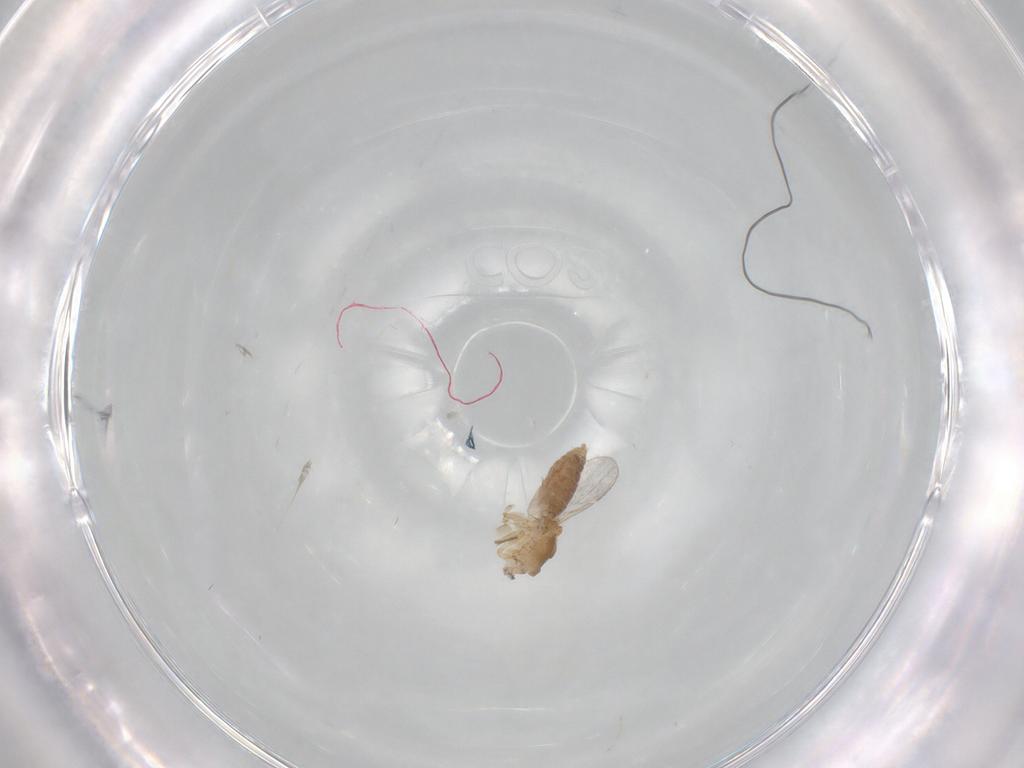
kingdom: Animalia
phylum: Arthropoda
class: Insecta
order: Diptera
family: Ceratopogonidae
